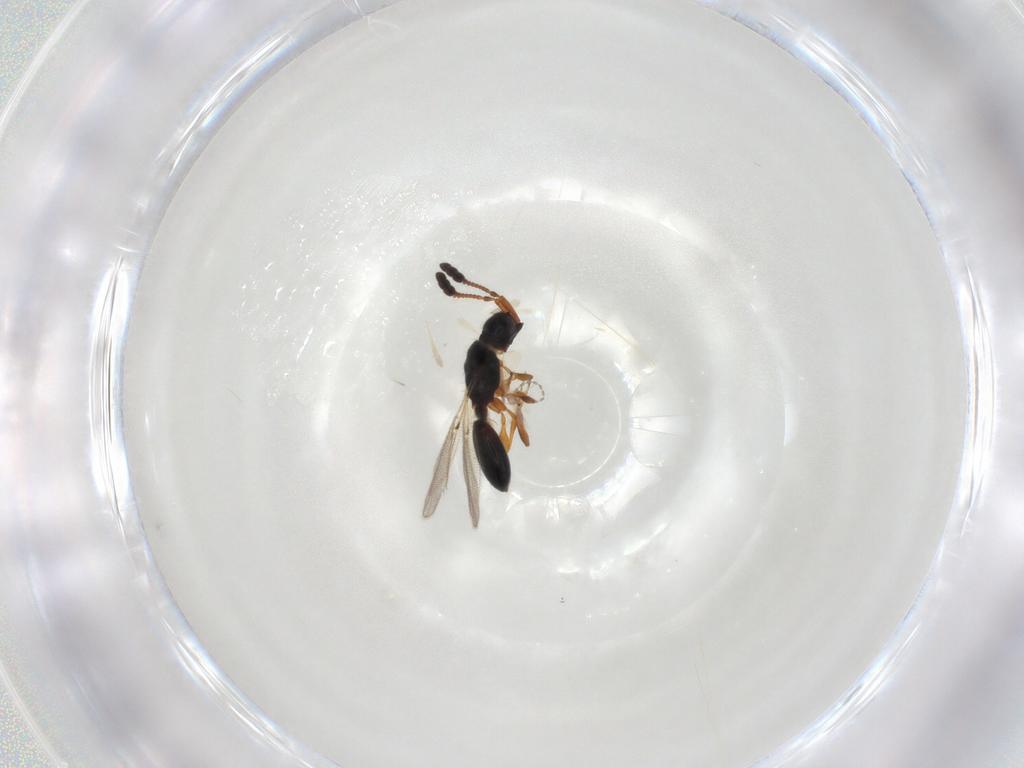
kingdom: Animalia
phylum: Arthropoda
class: Insecta
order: Hymenoptera
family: Diapriidae
